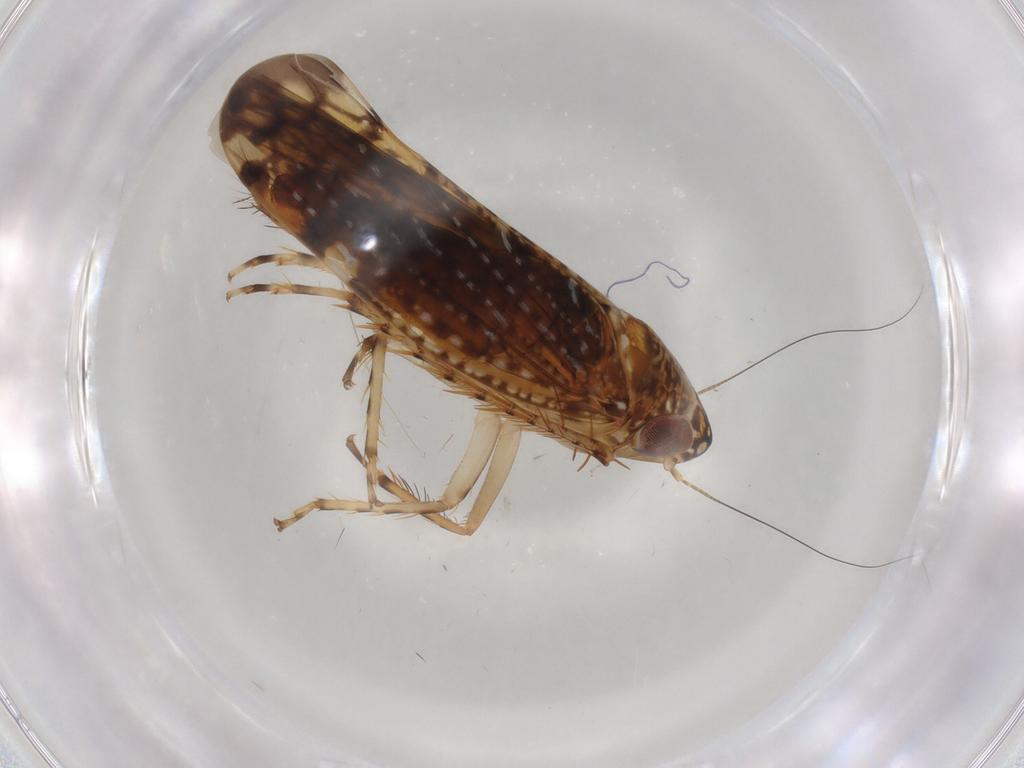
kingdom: Animalia
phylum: Arthropoda
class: Insecta
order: Hemiptera
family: Cicadellidae
